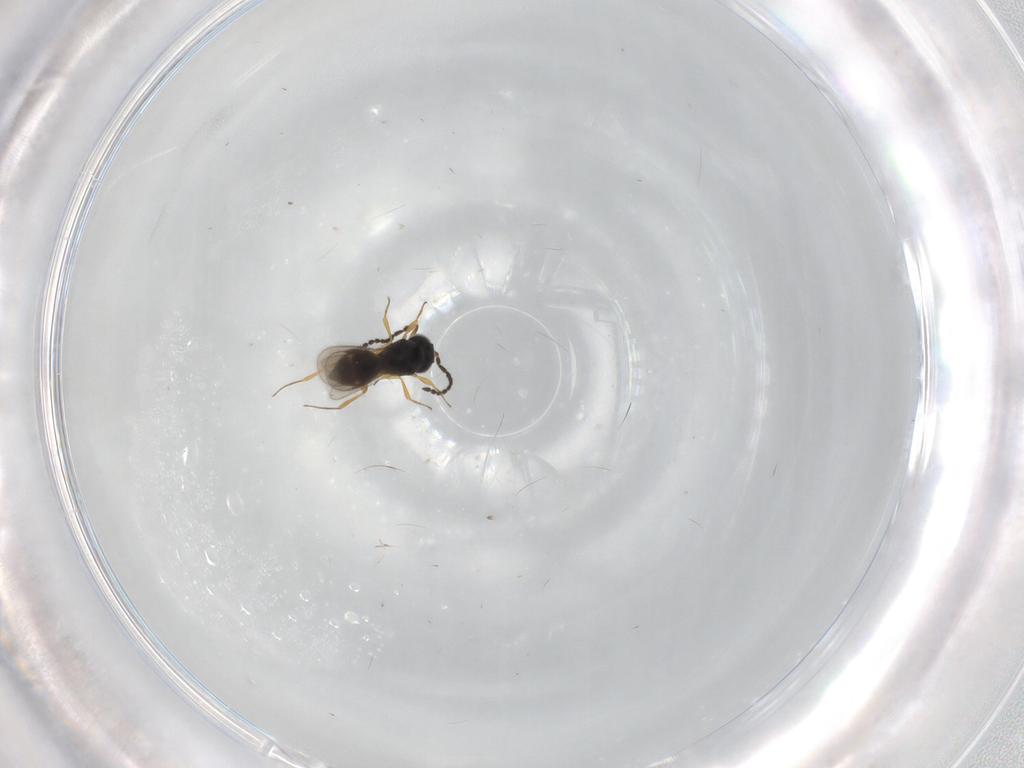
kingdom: Animalia
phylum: Arthropoda
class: Insecta
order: Hymenoptera
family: Scelionidae
